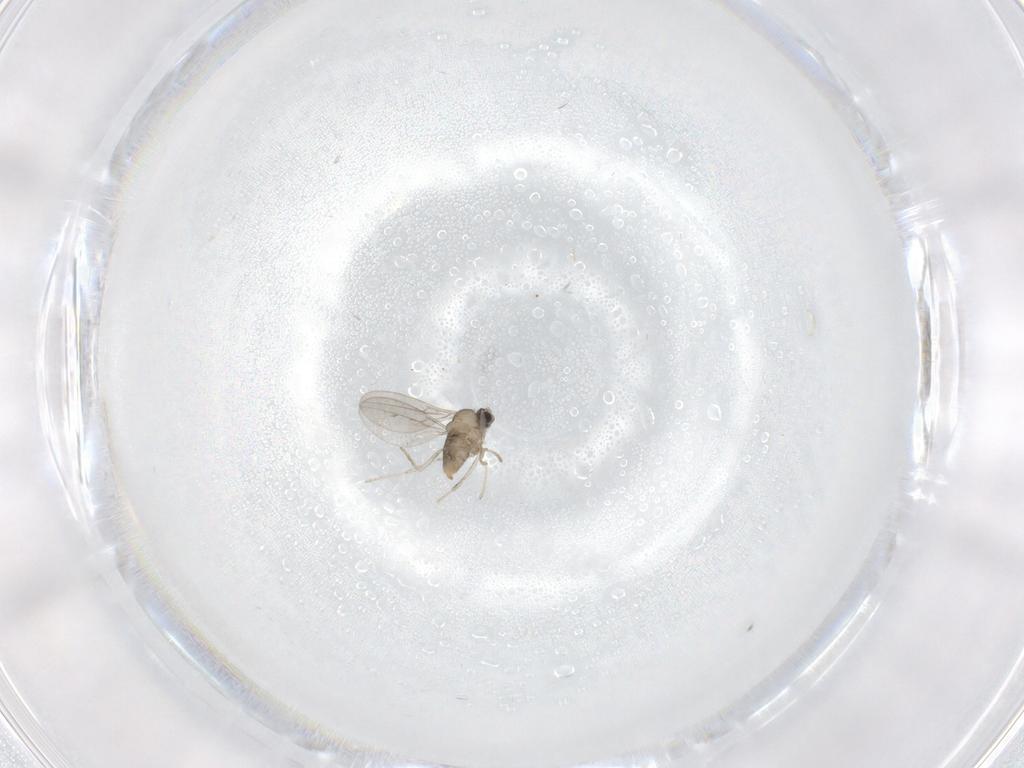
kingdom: Animalia
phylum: Arthropoda
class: Insecta
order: Diptera
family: Cecidomyiidae
